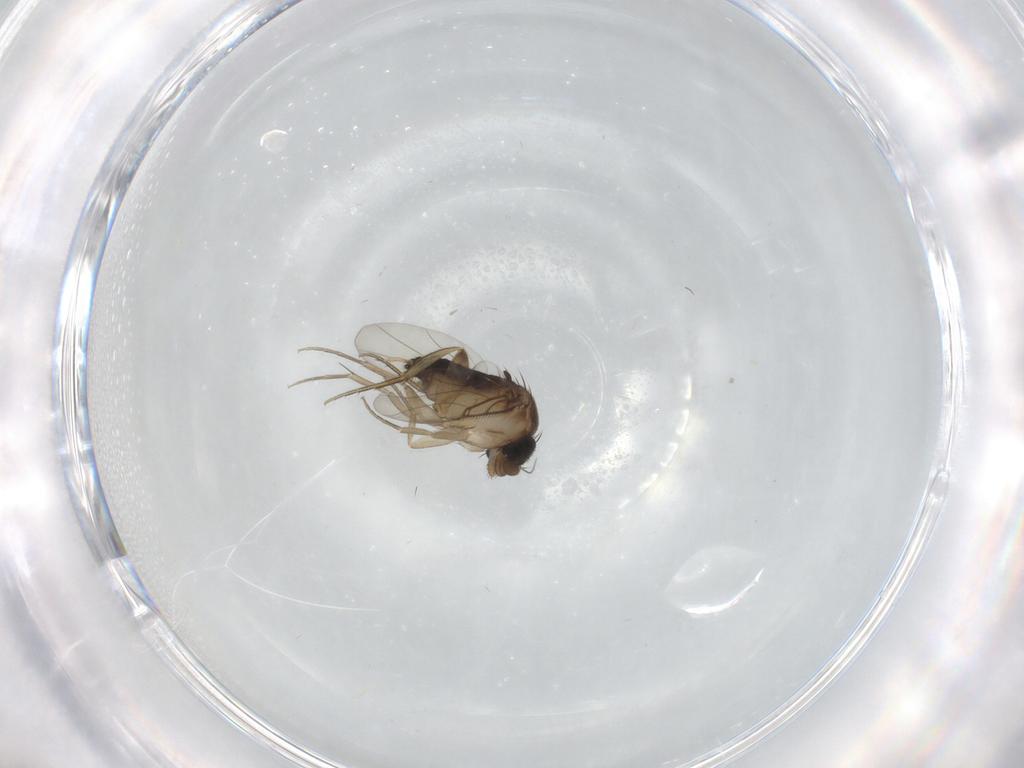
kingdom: Animalia
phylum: Arthropoda
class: Insecta
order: Diptera
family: Phoridae
